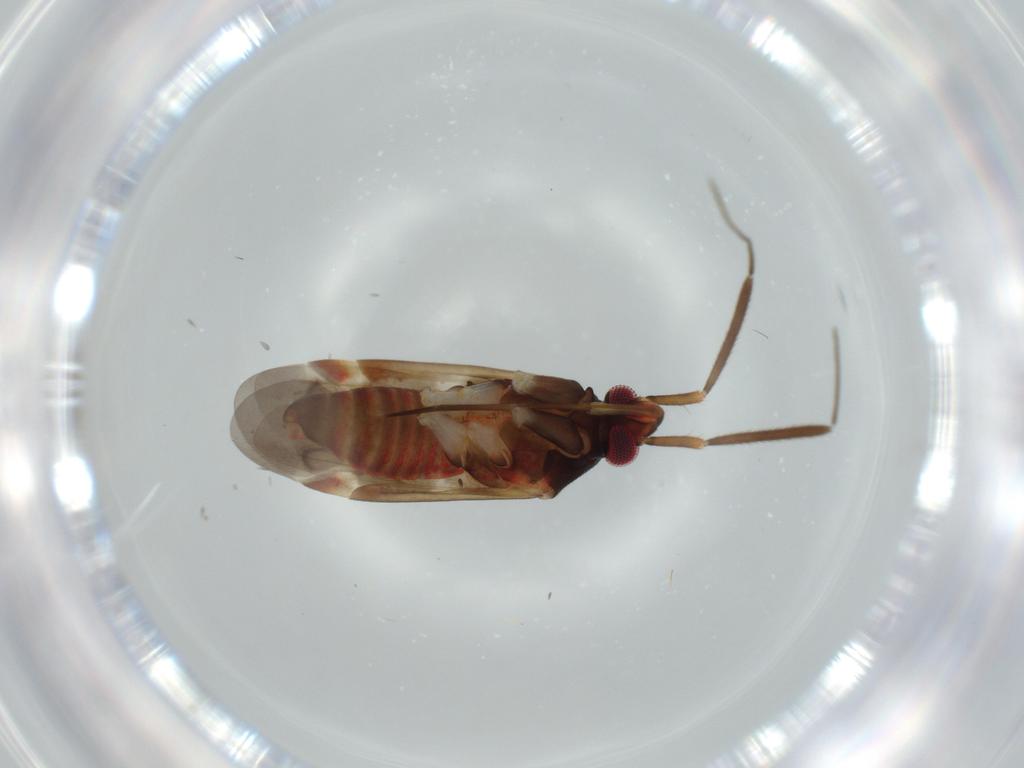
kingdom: Animalia
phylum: Arthropoda
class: Insecta
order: Hemiptera
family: Miridae
